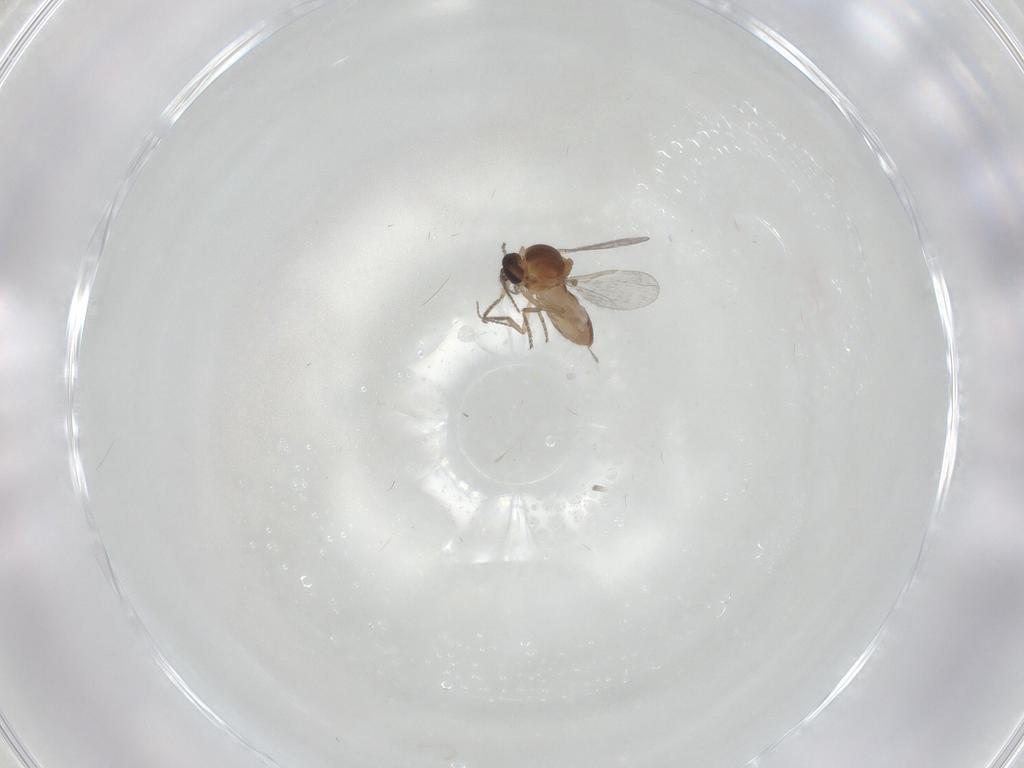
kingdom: Animalia
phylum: Arthropoda
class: Insecta
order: Diptera
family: Ceratopogonidae
